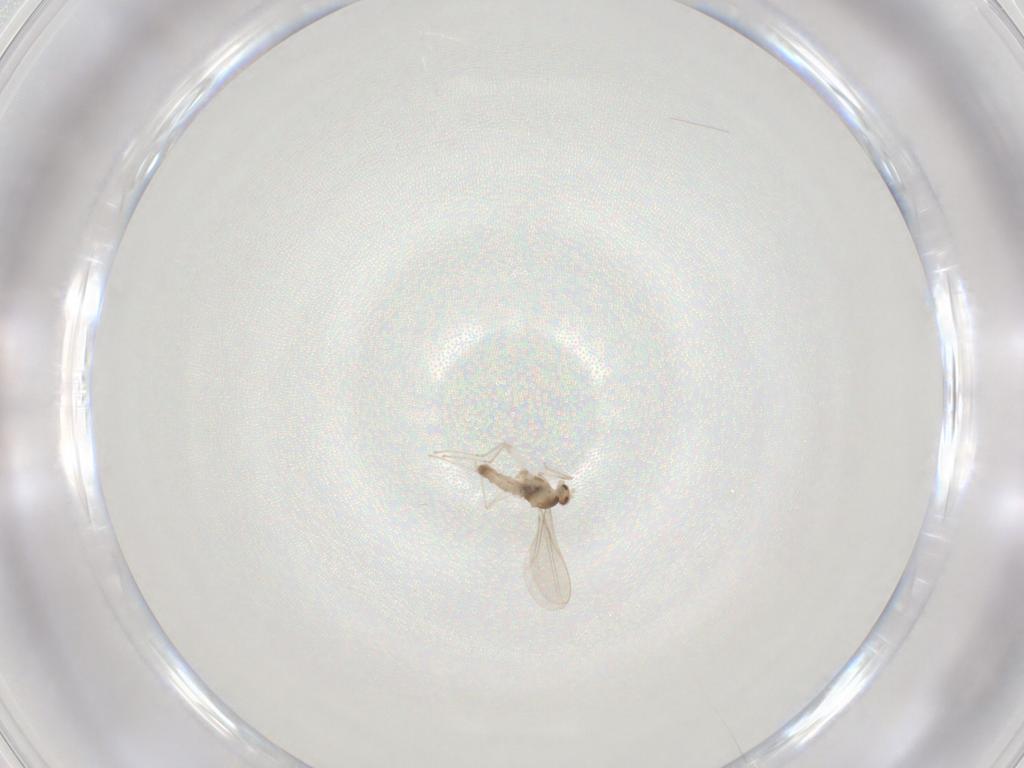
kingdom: Animalia
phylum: Arthropoda
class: Insecta
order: Diptera
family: Cecidomyiidae
